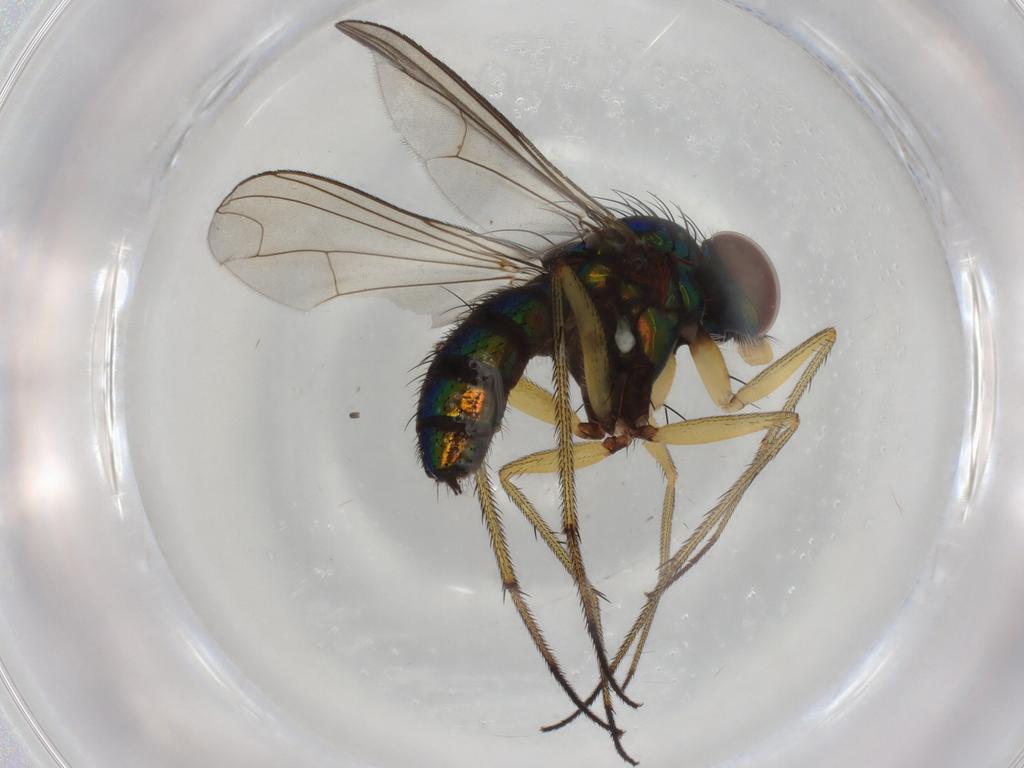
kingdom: Animalia
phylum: Arthropoda
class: Insecta
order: Diptera
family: Dolichopodidae
